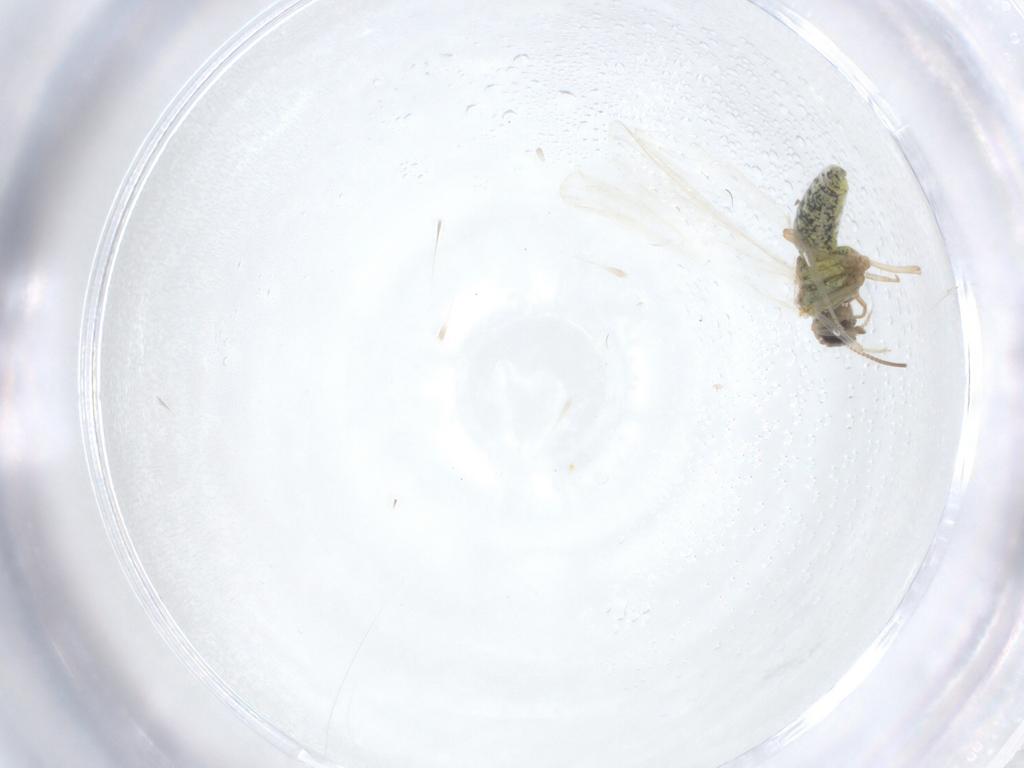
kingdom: Animalia
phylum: Arthropoda
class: Insecta
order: Neuroptera
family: Coniopterygidae
